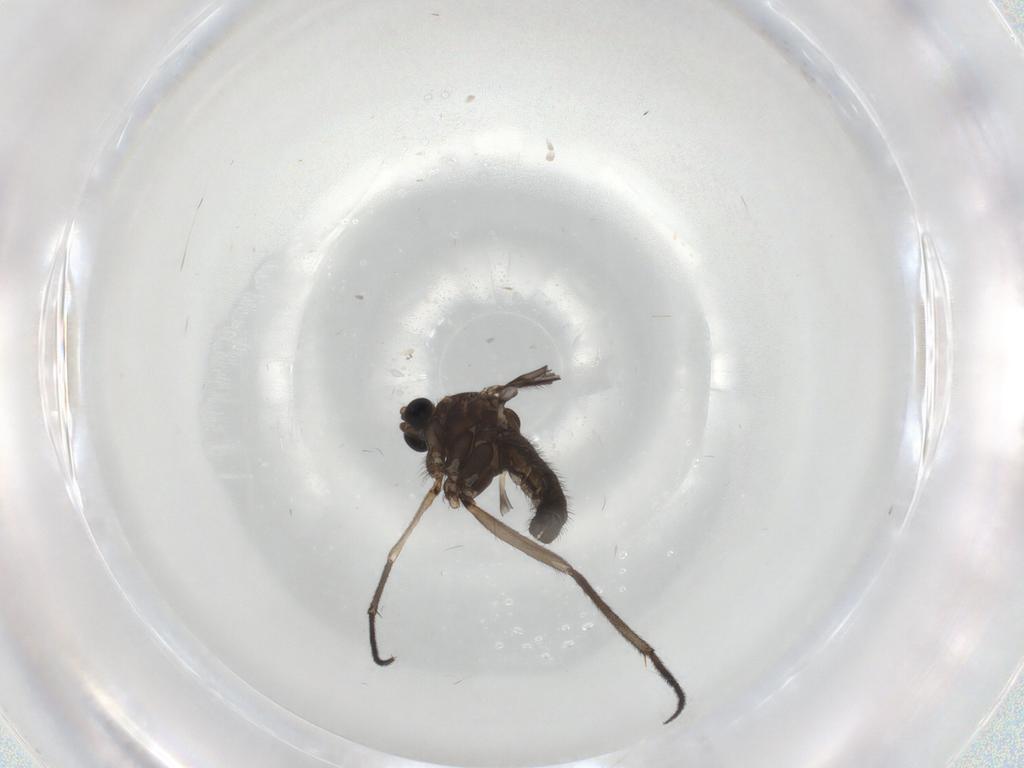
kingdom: Animalia
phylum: Arthropoda
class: Insecta
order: Diptera
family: Sciaridae
